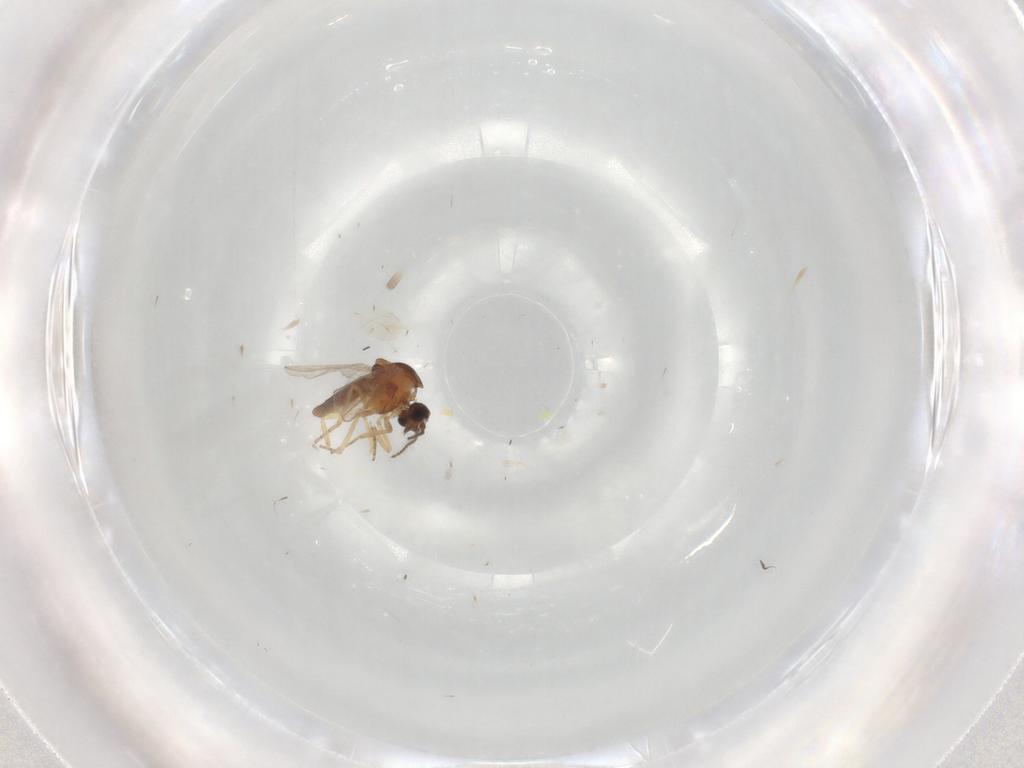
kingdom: Animalia
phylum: Arthropoda
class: Insecta
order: Diptera
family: Ceratopogonidae
